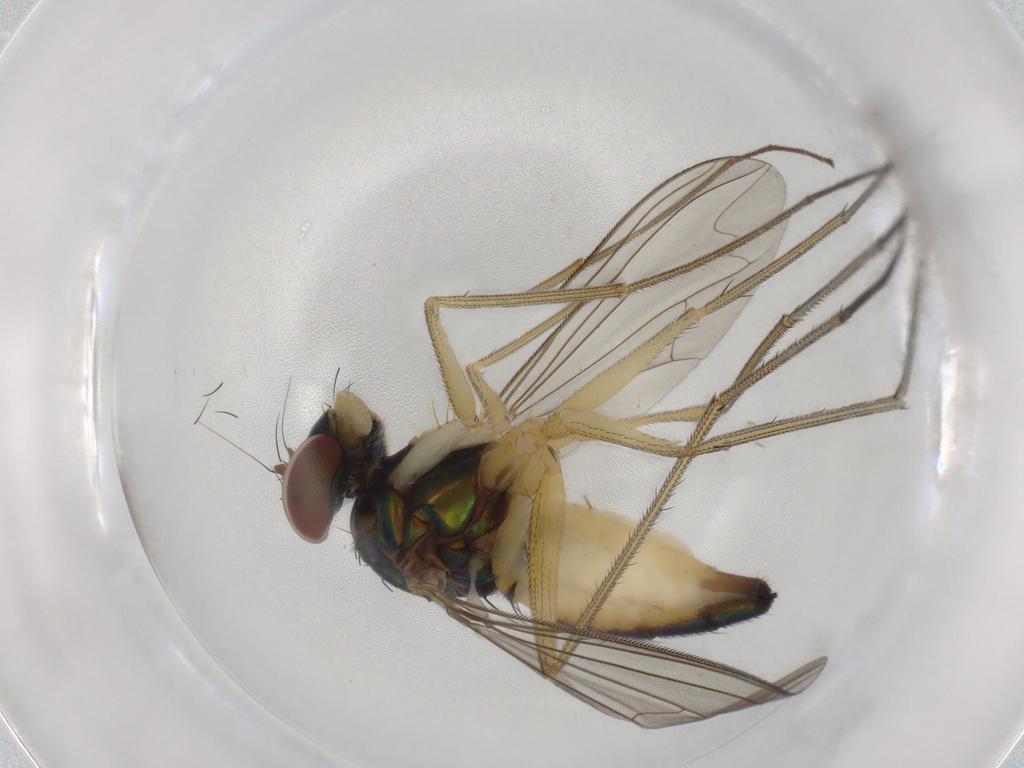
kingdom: Animalia
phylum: Arthropoda
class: Insecta
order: Diptera
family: Dolichopodidae
